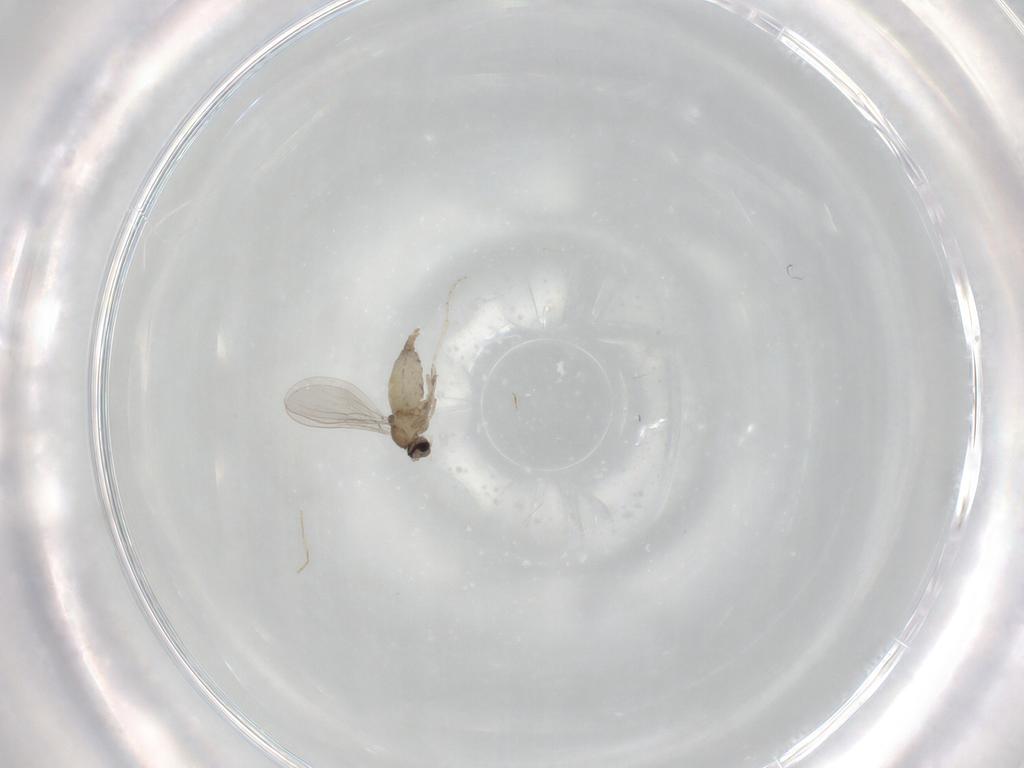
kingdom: Animalia
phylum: Arthropoda
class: Insecta
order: Diptera
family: Cecidomyiidae
